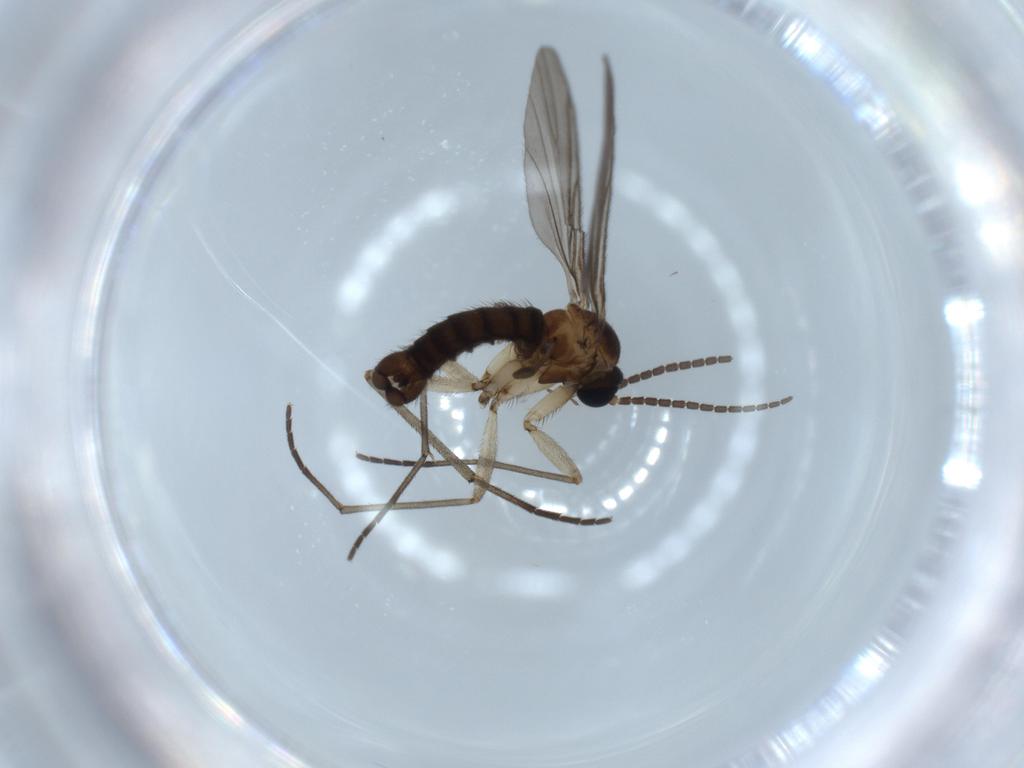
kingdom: Animalia
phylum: Arthropoda
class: Insecta
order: Diptera
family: Sciaridae
